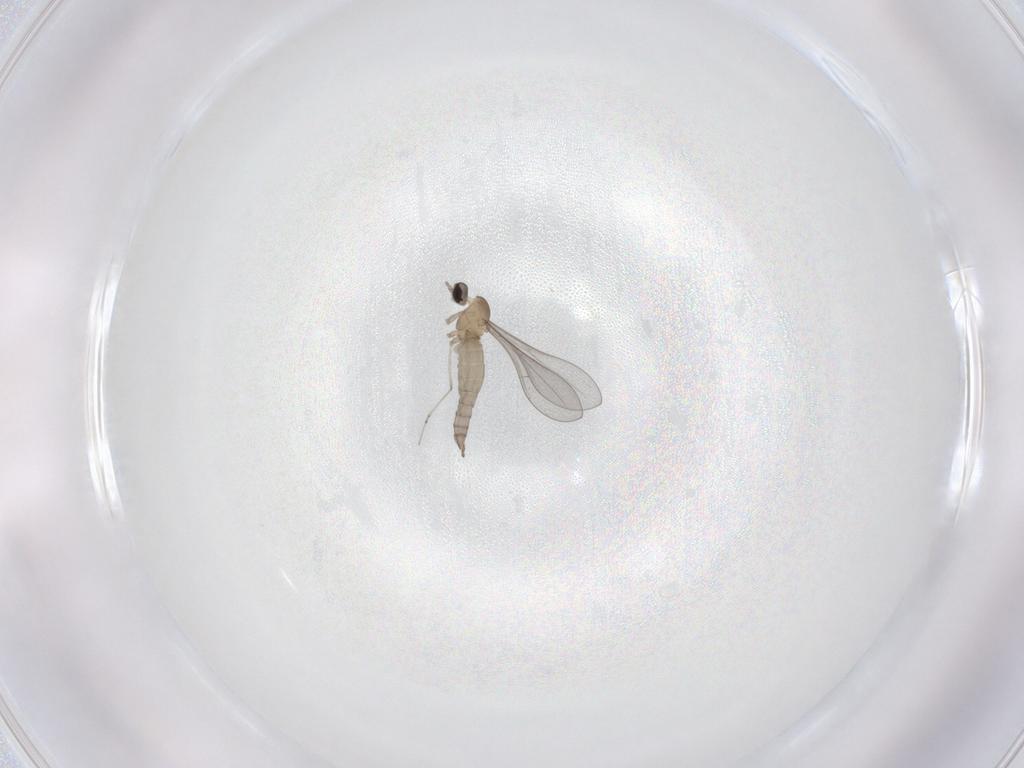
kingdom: Animalia
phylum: Arthropoda
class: Insecta
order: Diptera
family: Cecidomyiidae
